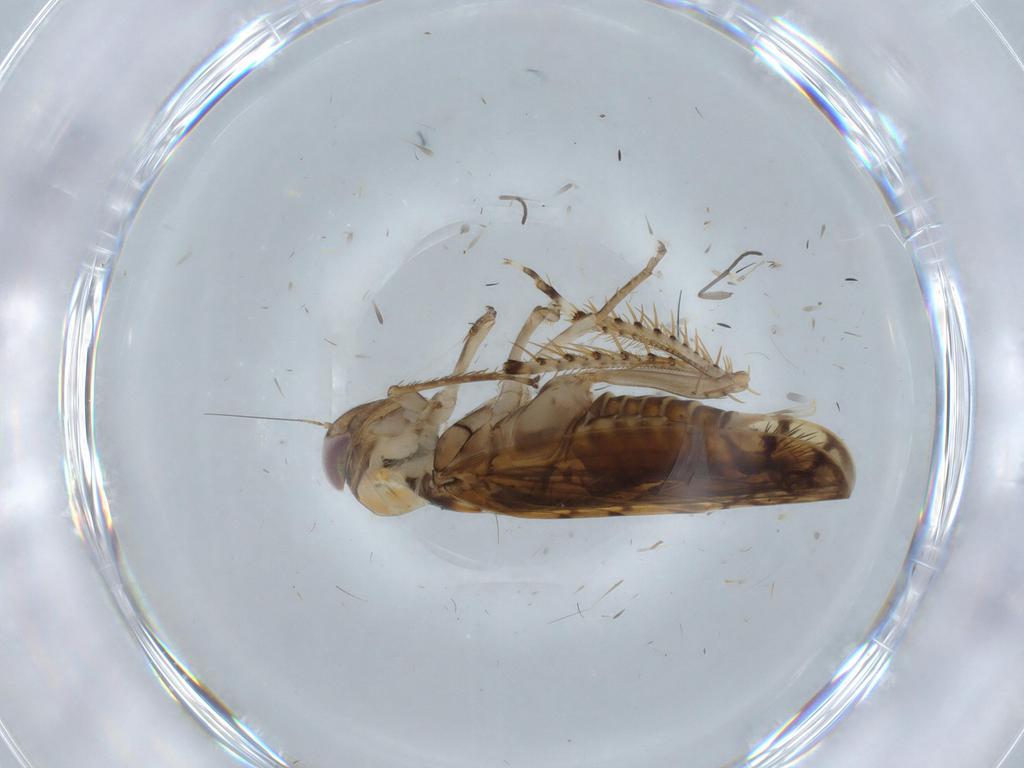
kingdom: Animalia
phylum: Arthropoda
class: Insecta
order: Hemiptera
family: Cicadellidae
